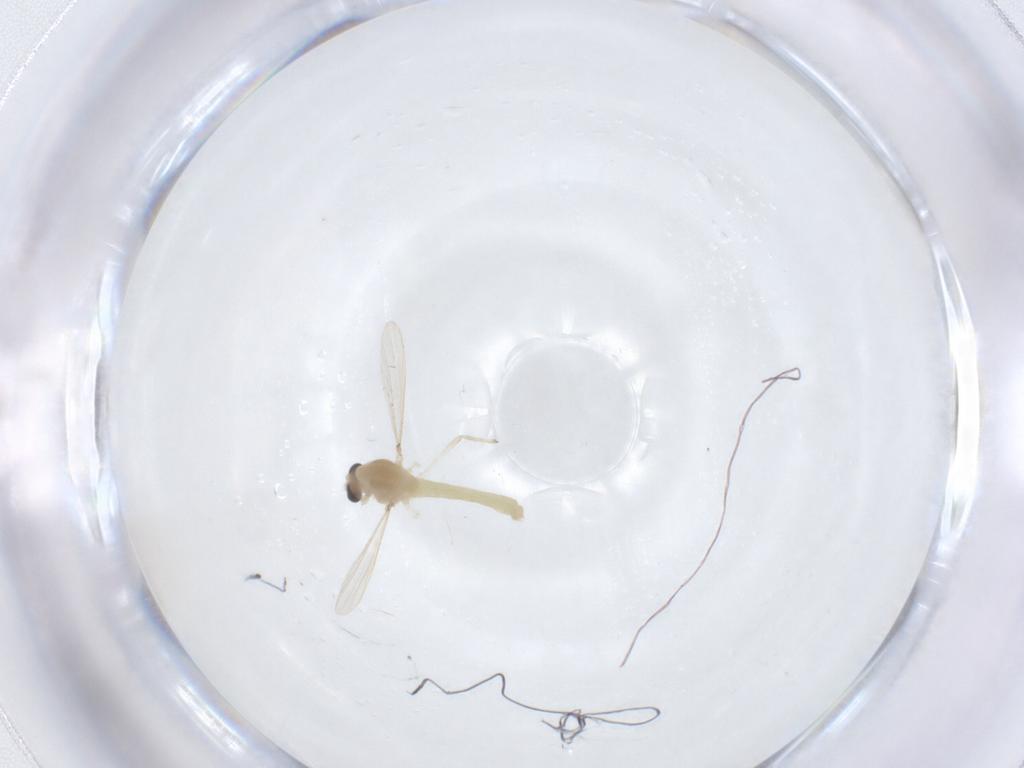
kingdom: Animalia
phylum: Arthropoda
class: Insecta
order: Diptera
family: Chironomidae
